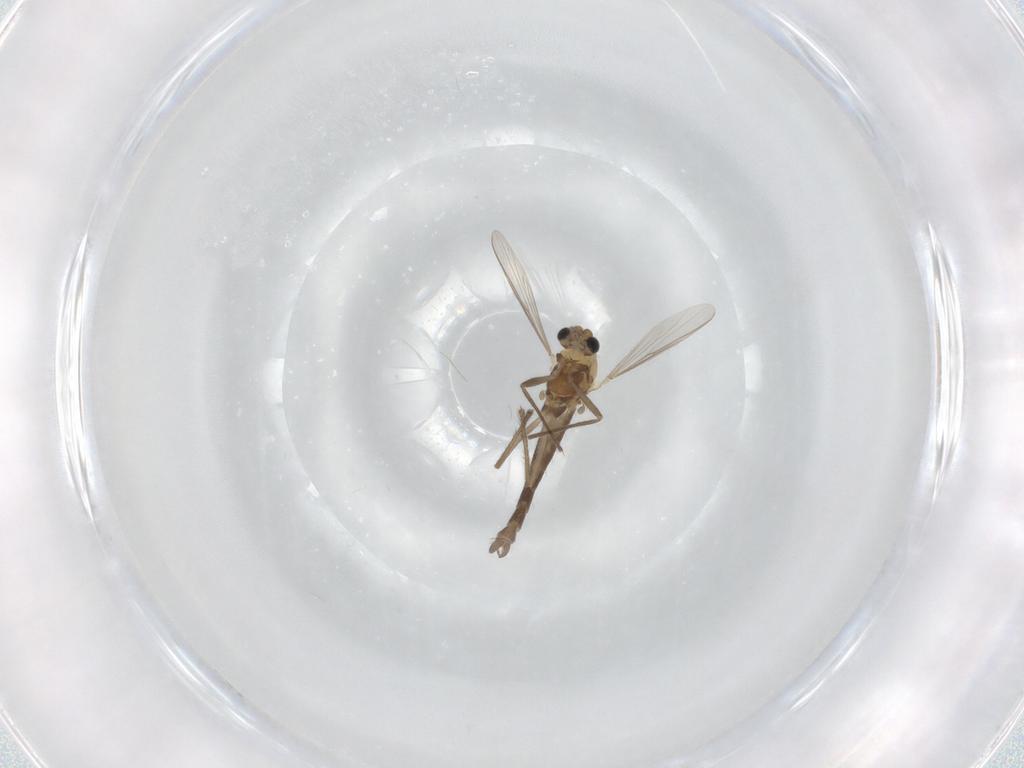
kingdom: Animalia
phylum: Arthropoda
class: Insecta
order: Diptera
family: Chironomidae
